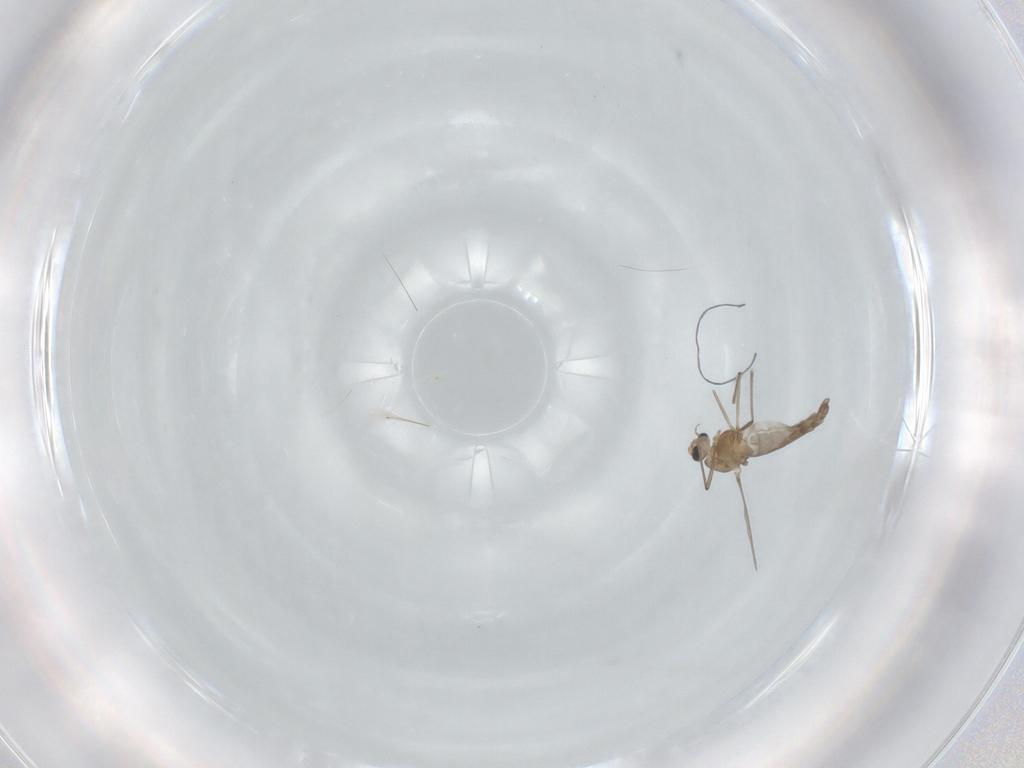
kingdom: Animalia
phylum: Arthropoda
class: Insecta
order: Diptera
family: Chironomidae
